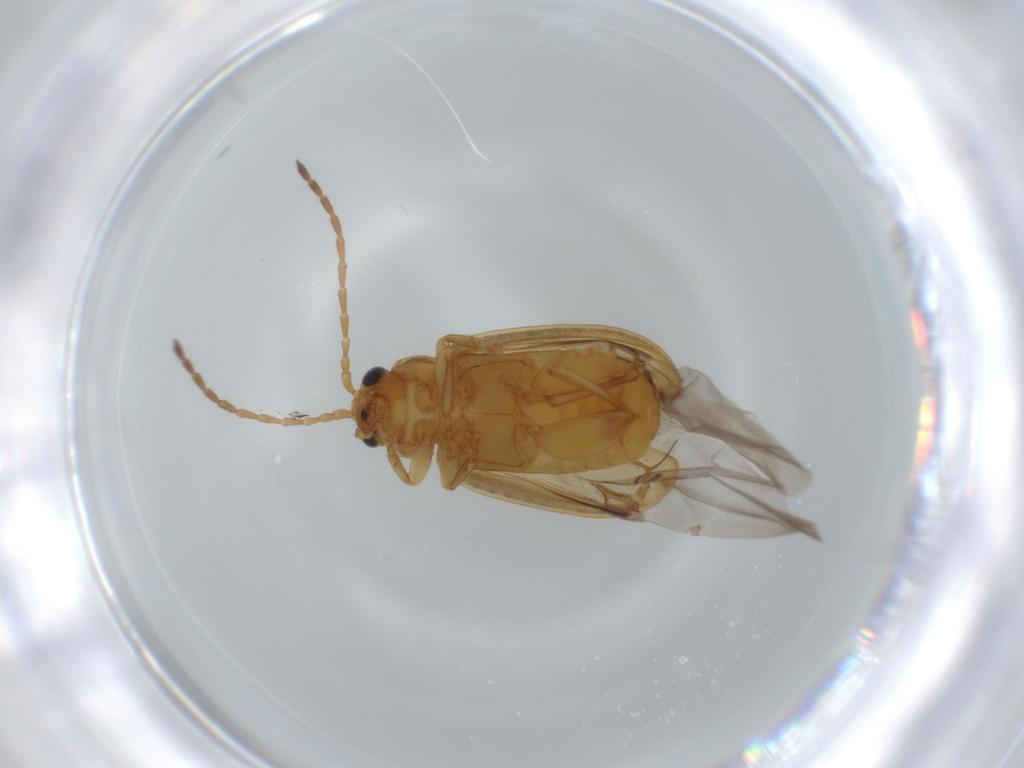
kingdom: Animalia
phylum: Arthropoda
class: Insecta
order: Coleoptera
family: Chrysomelidae
